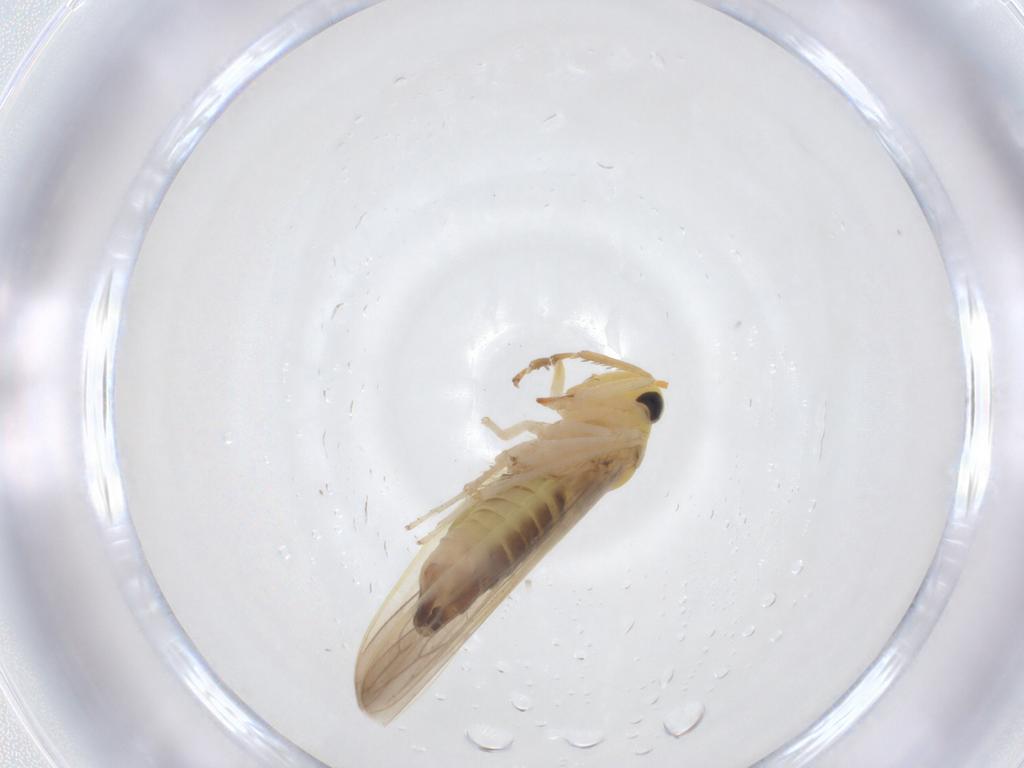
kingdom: Animalia
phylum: Arthropoda
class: Insecta
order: Hemiptera
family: Cicadellidae
